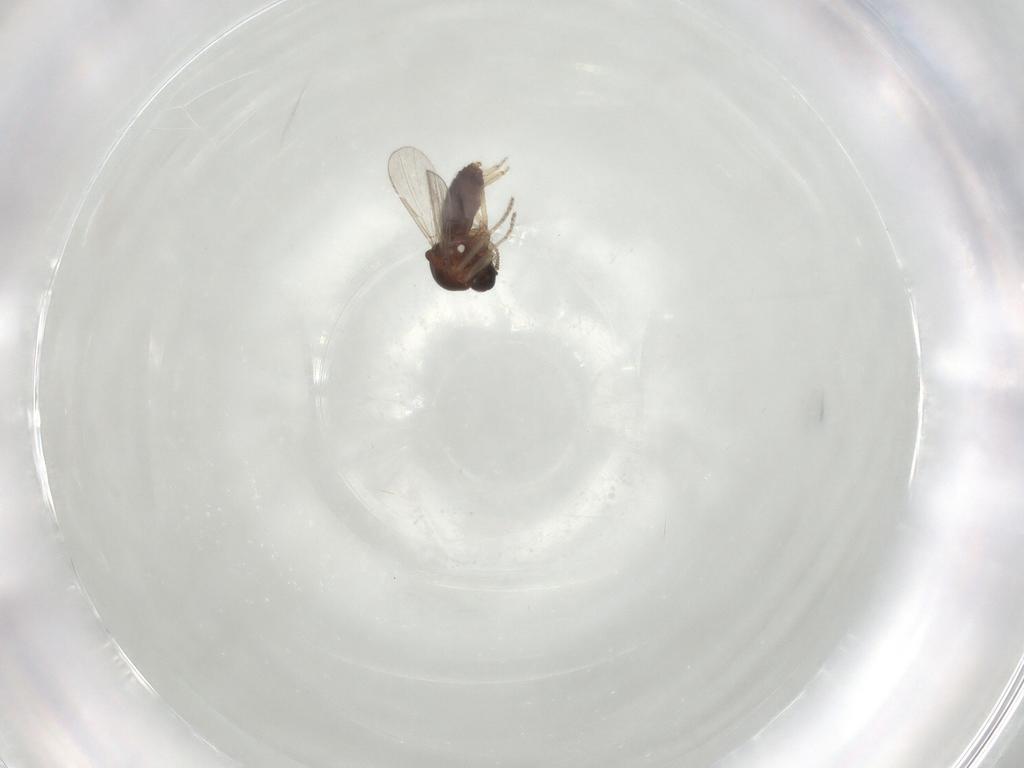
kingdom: Animalia
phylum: Arthropoda
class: Insecta
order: Diptera
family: Ceratopogonidae
